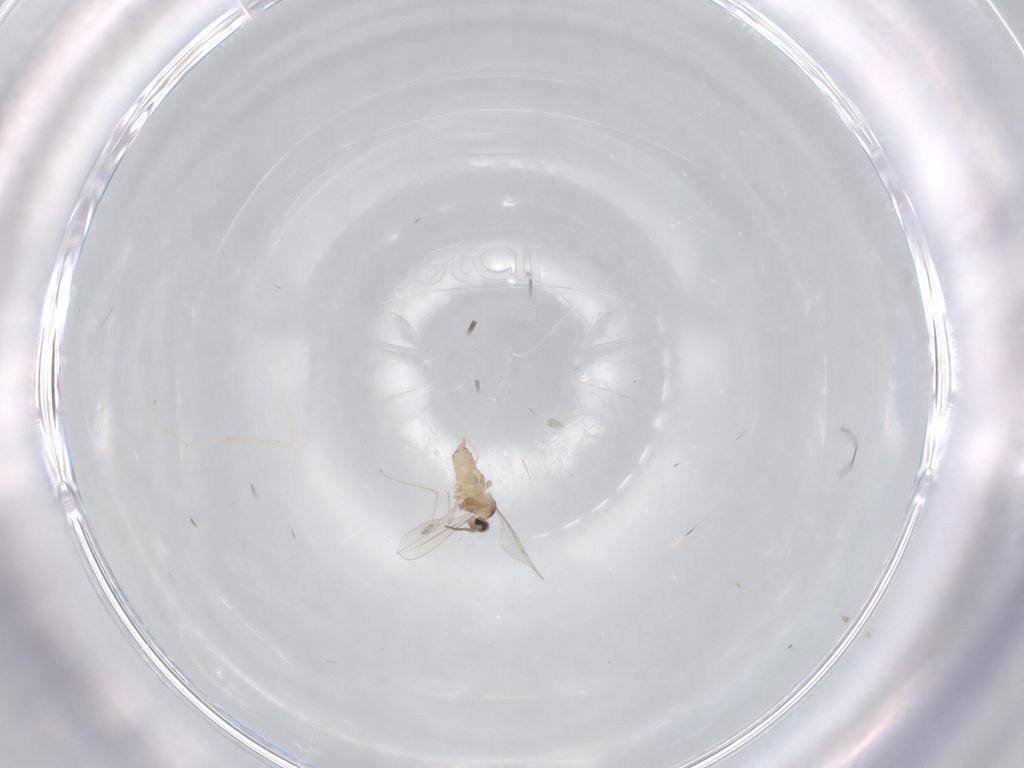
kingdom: Animalia
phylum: Arthropoda
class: Insecta
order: Diptera
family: Cecidomyiidae
